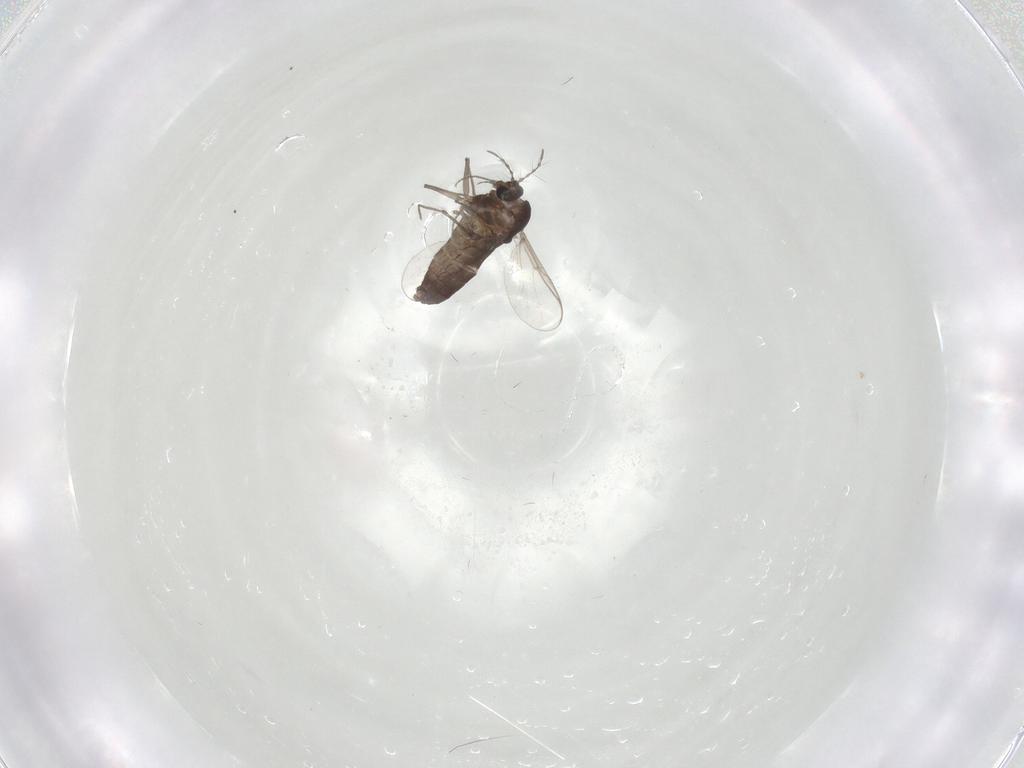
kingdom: Animalia
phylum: Arthropoda
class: Insecta
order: Diptera
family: Chironomidae
